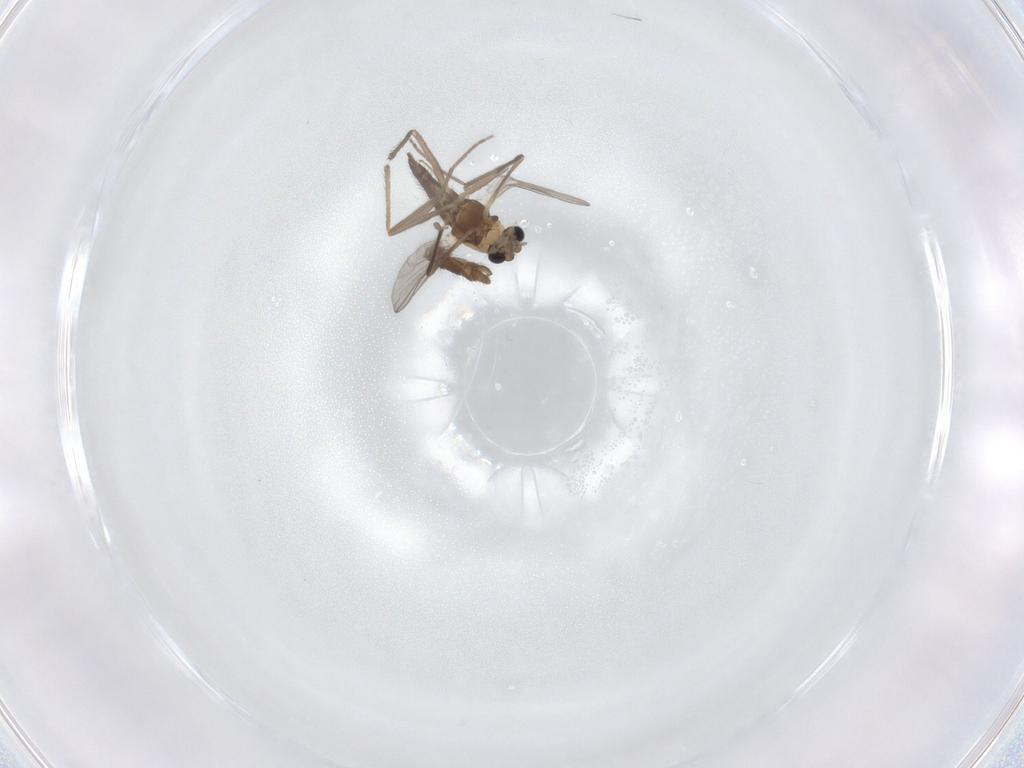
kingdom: Animalia
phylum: Arthropoda
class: Insecta
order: Diptera
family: Chironomidae
